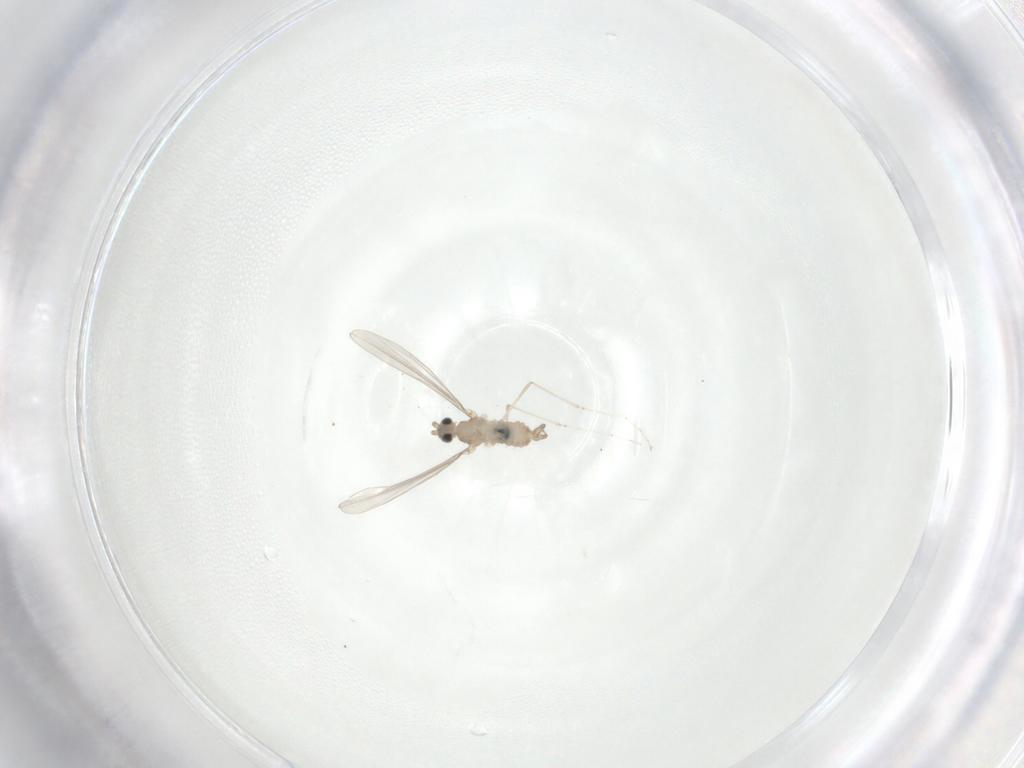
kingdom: Animalia
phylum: Arthropoda
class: Insecta
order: Diptera
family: Cecidomyiidae
